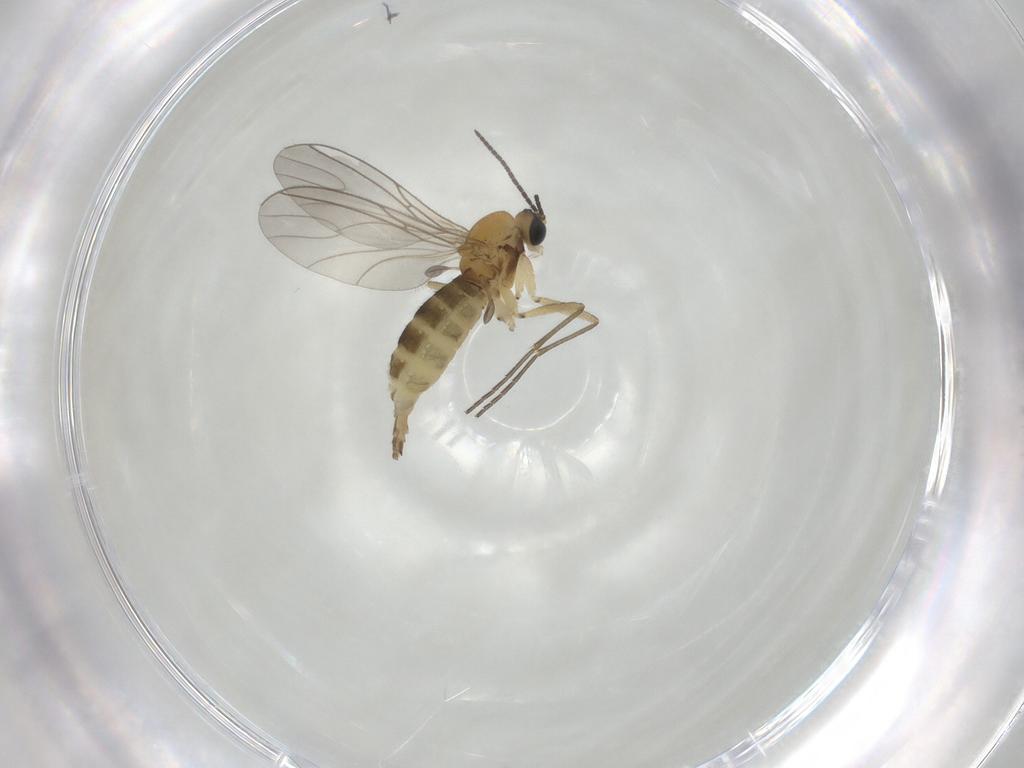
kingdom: Animalia
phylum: Arthropoda
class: Insecta
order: Diptera
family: Sciaridae
